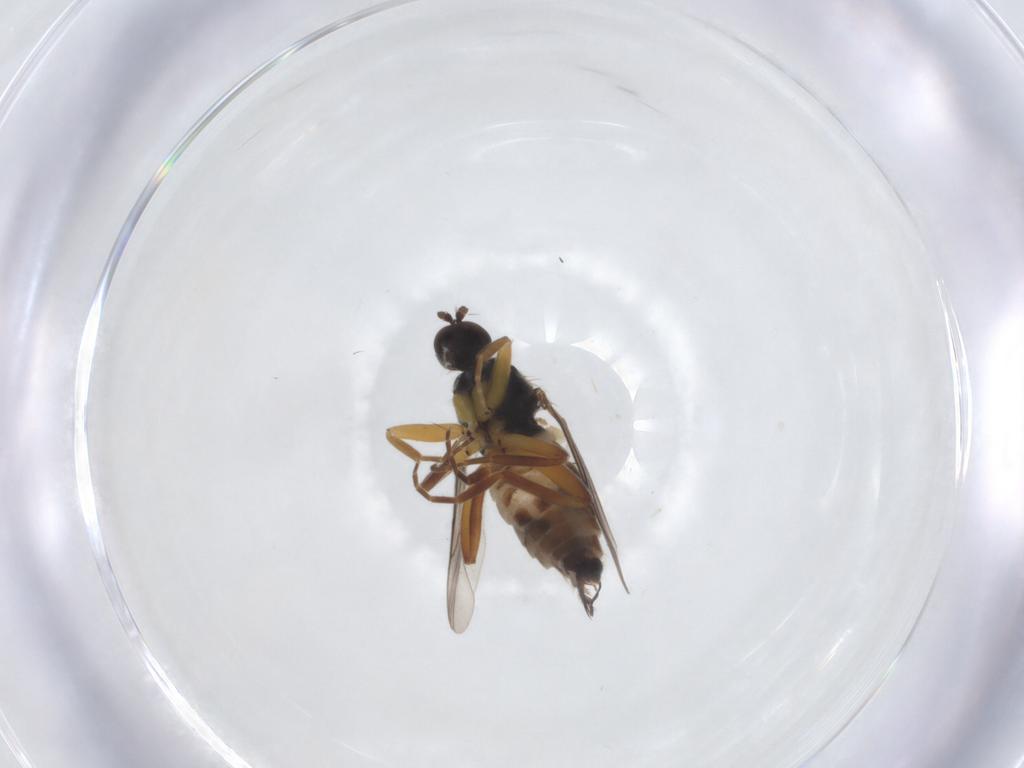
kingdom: Animalia
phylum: Arthropoda
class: Insecta
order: Diptera
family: Hybotidae
